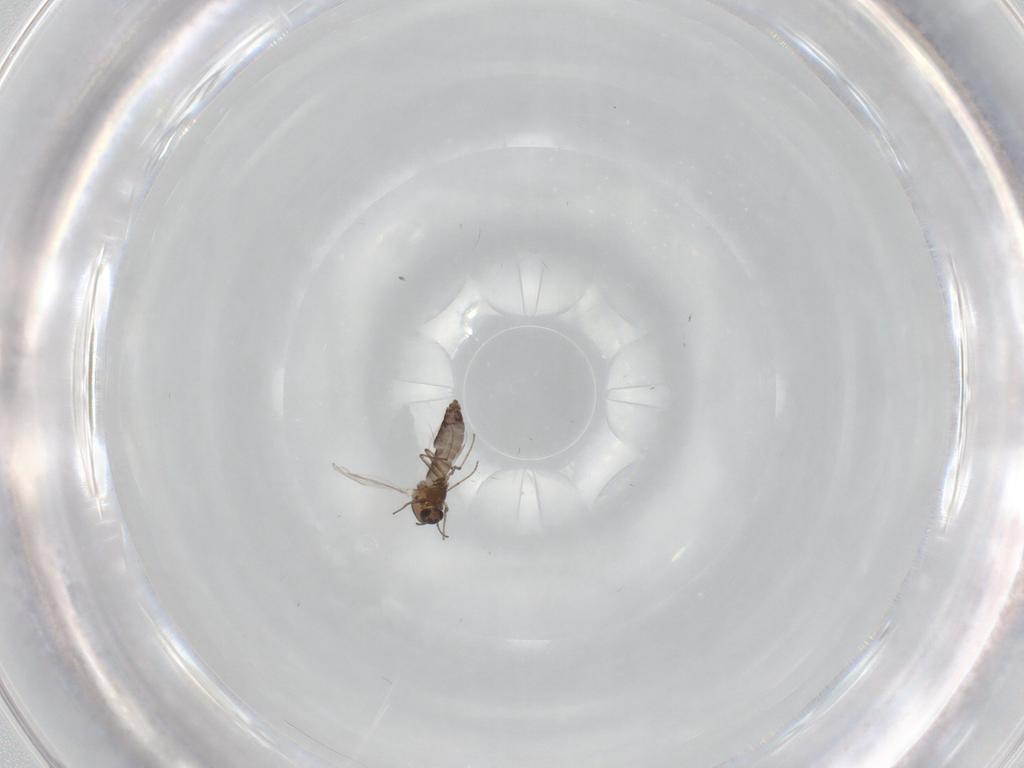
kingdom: Animalia
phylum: Arthropoda
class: Insecta
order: Diptera
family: Chironomidae
